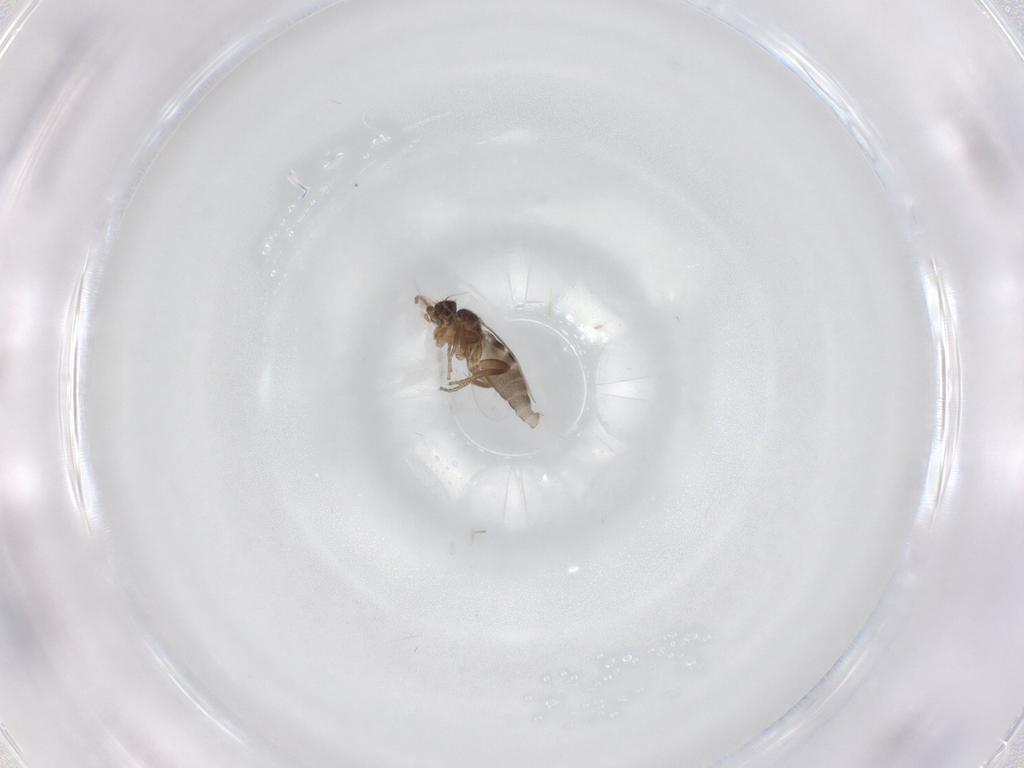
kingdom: Animalia
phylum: Arthropoda
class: Insecta
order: Diptera
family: Phoridae
